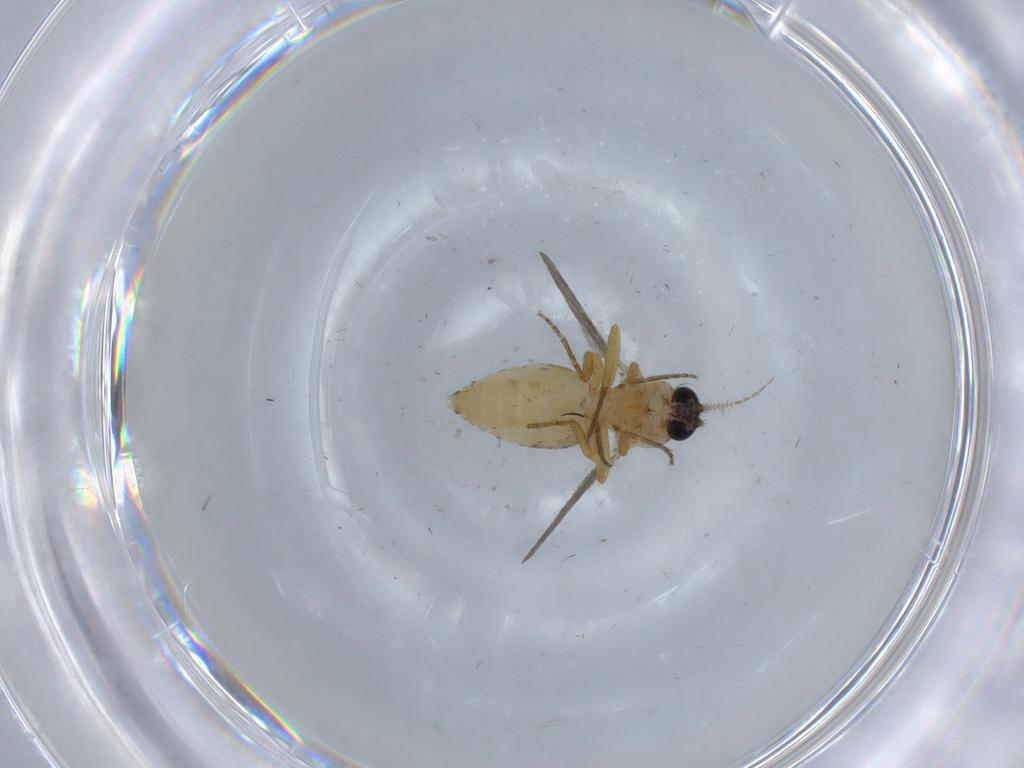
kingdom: Animalia
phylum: Arthropoda
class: Insecta
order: Diptera
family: Ceratopogonidae
